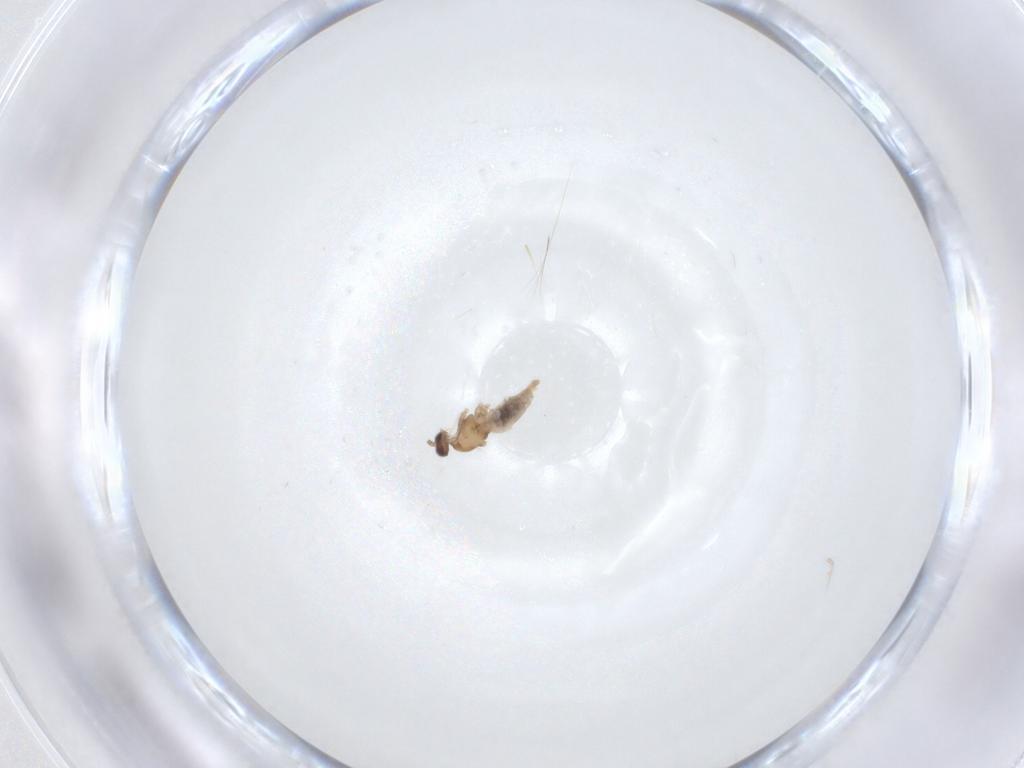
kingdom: Animalia
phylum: Arthropoda
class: Insecta
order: Diptera
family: Cecidomyiidae
